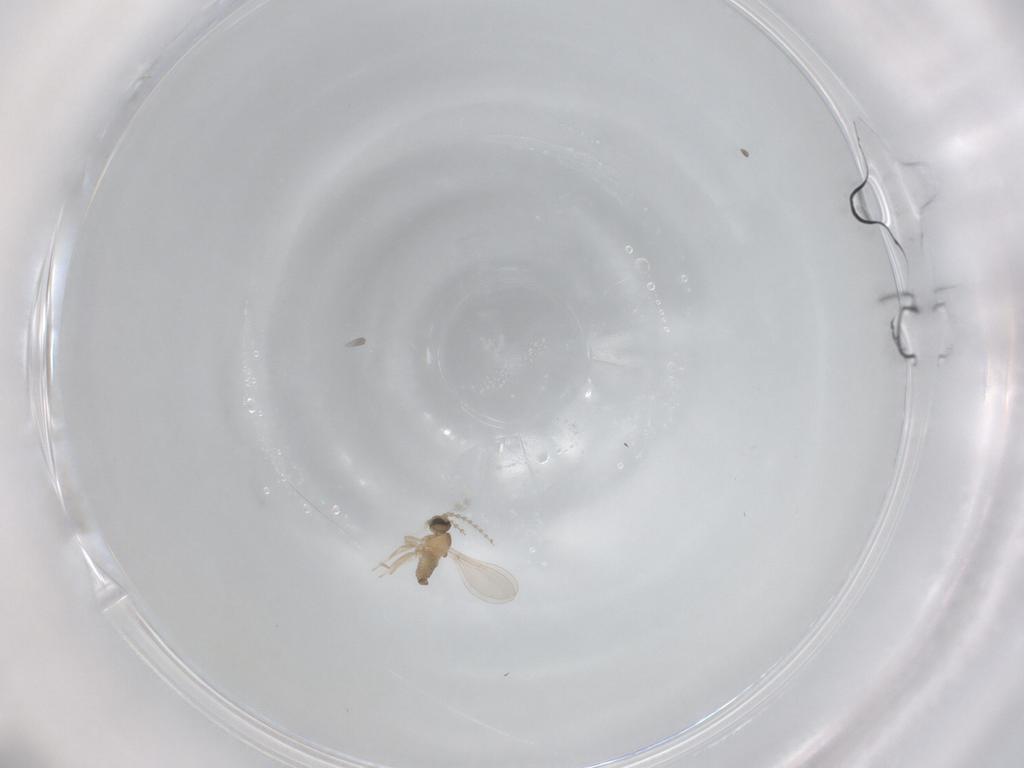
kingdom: Animalia
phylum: Arthropoda
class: Insecta
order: Diptera
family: Cecidomyiidae
